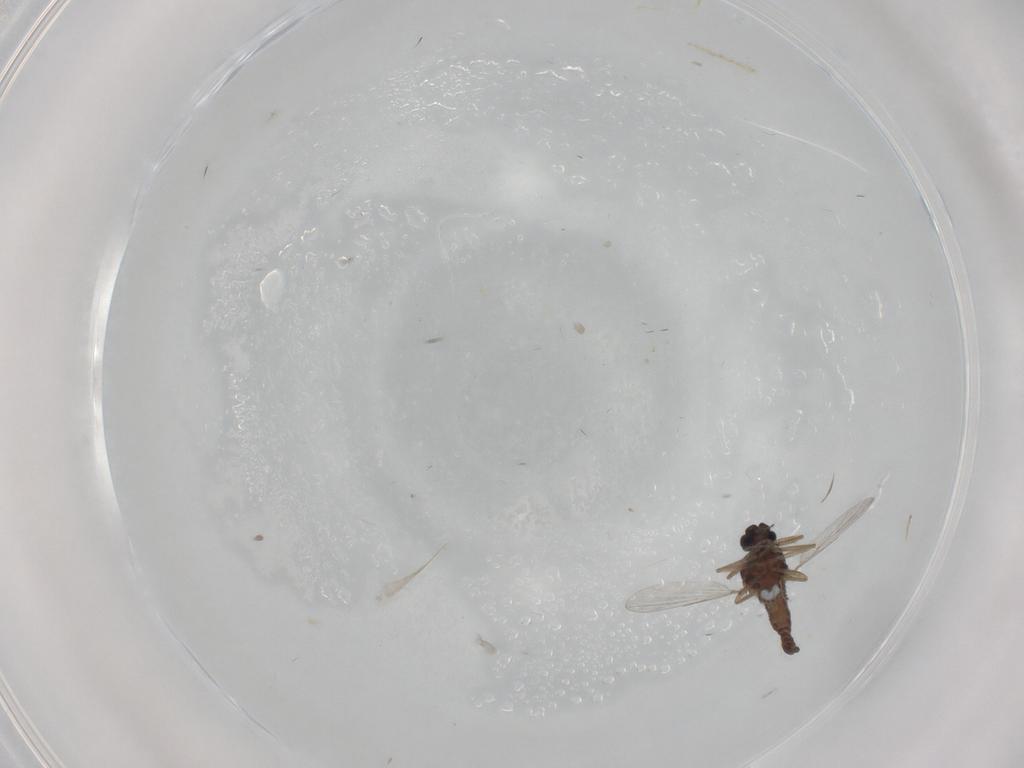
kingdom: Animalia
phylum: Arthropoda
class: Insecta
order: Diptera
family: Ceratopogonidae
